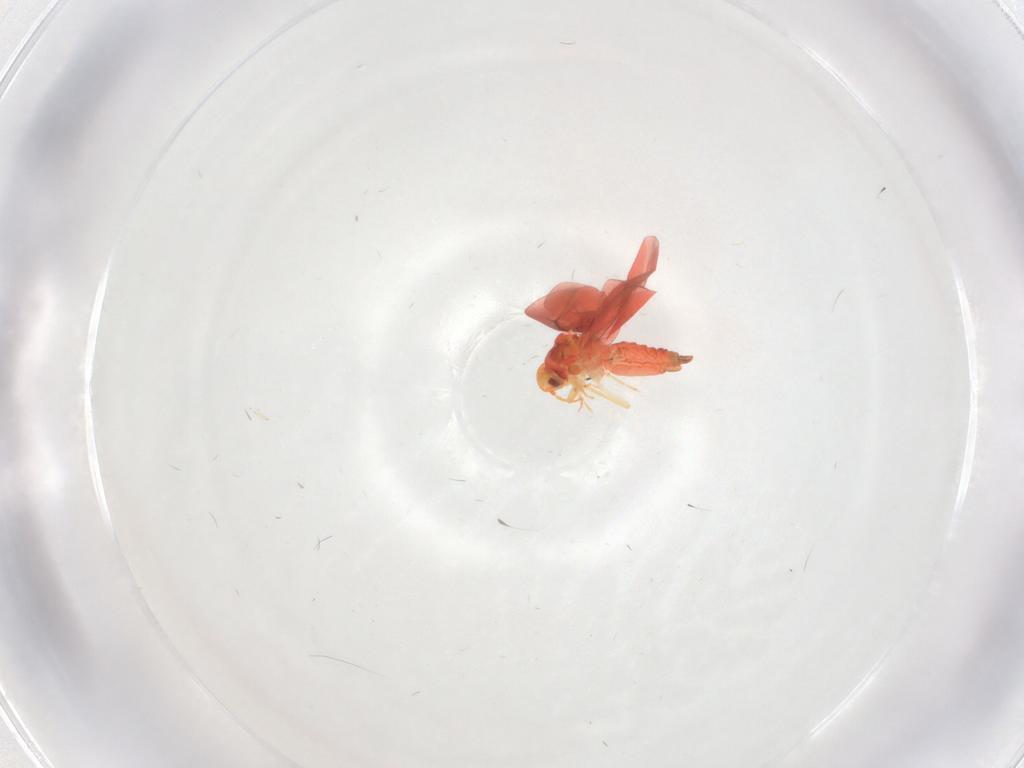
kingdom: Animalia
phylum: Arthropoda
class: Insecta
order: Hemiptera
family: Aleyrodidae
